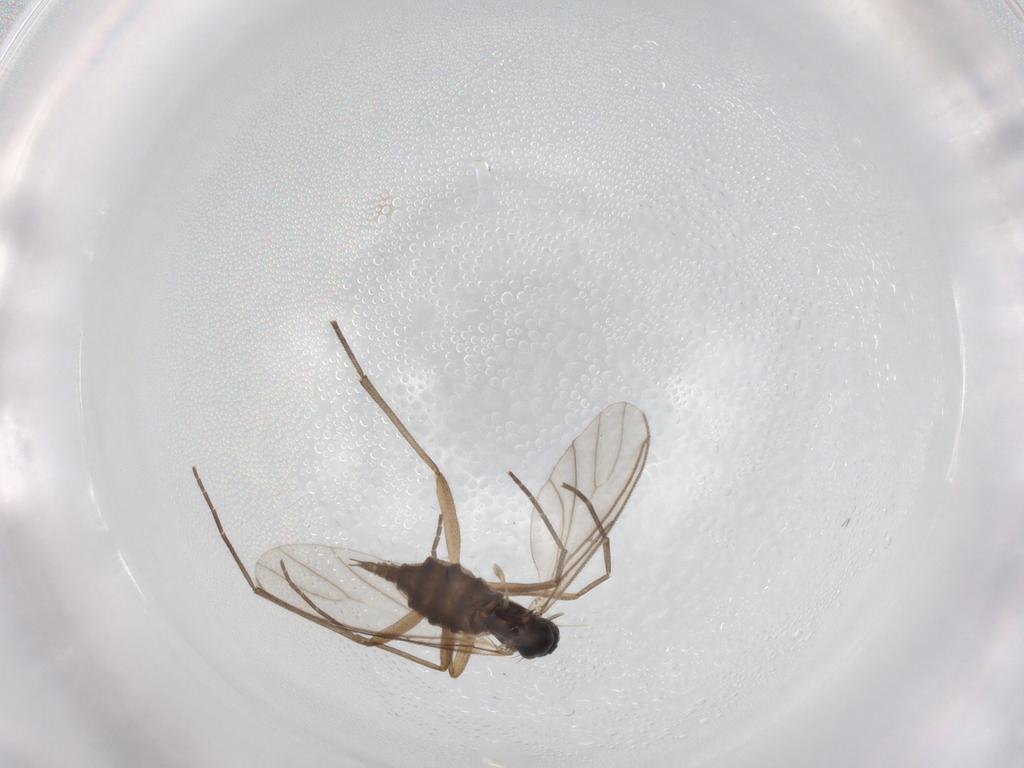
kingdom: Animalia
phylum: Arthropoda
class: Insecta
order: Diptera
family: Sciaridae
